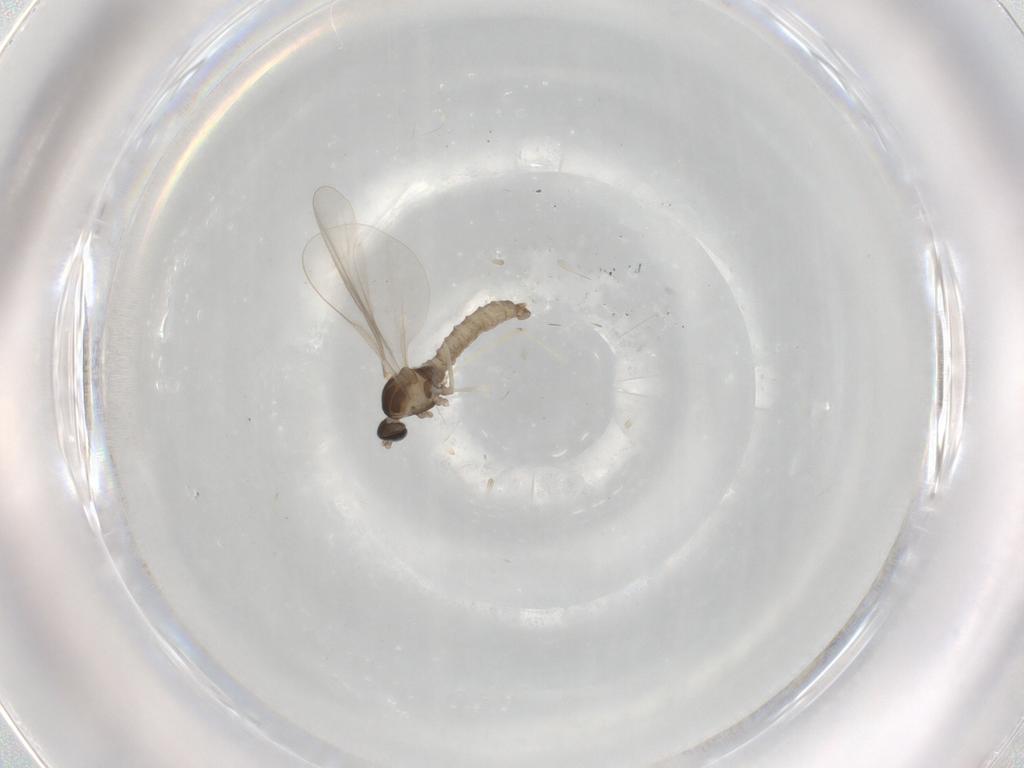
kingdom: Animalia
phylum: Arthropoda
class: Insecta
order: Diptera
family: Cecidomyiidae
